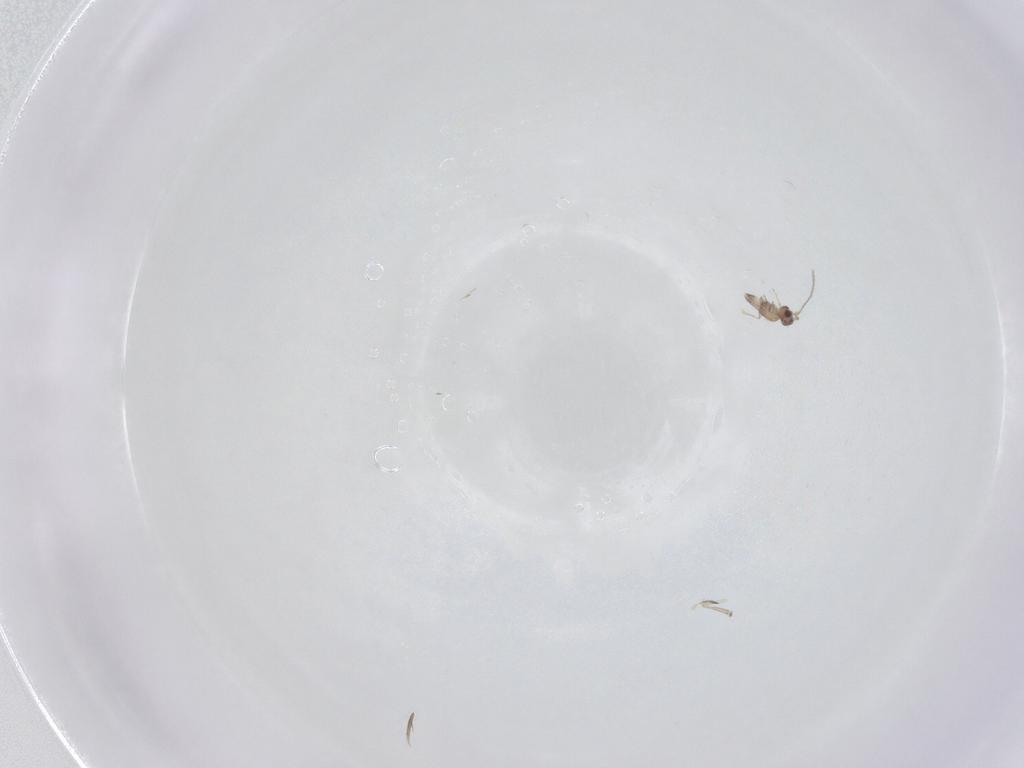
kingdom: Animalia
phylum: Arthropoda
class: Insecta
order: Hymenoptera
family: Mymaridae
